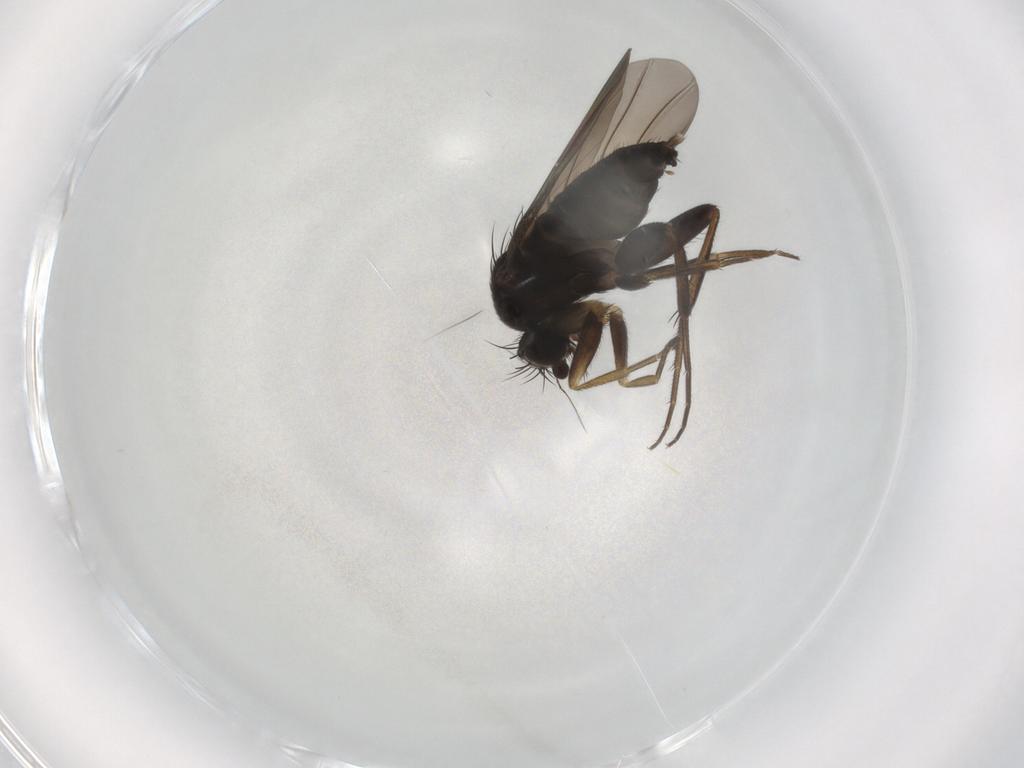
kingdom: Animalia
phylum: Arthropoda
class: Insecta
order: Diptera
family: Phoridae
